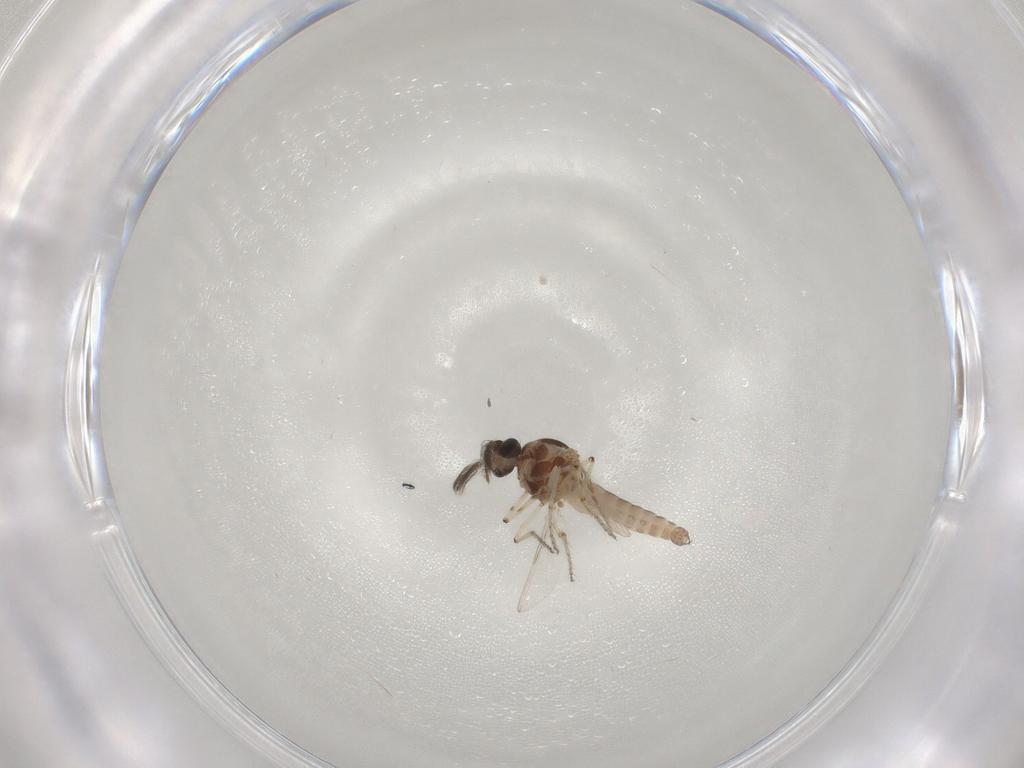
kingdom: Animalia
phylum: Arthropoda
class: Insecta
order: Diptera
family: Ceratopogonidae
